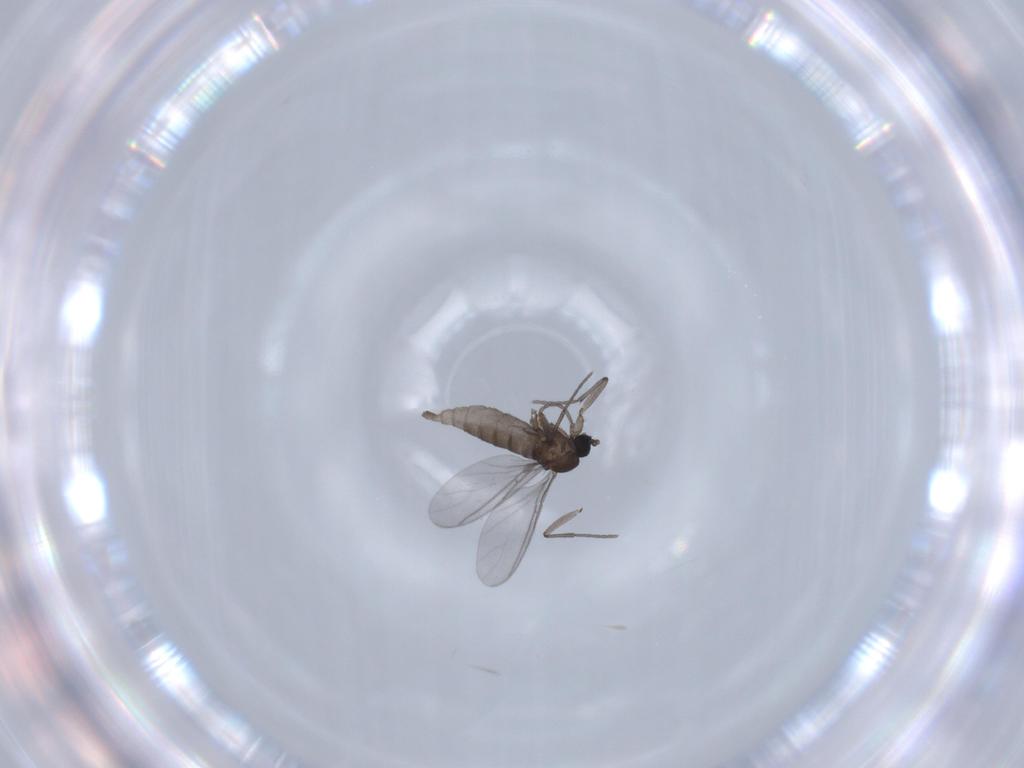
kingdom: Animalia
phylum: Arthropoda
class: Insecta
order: Diptera
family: Sciaridae
